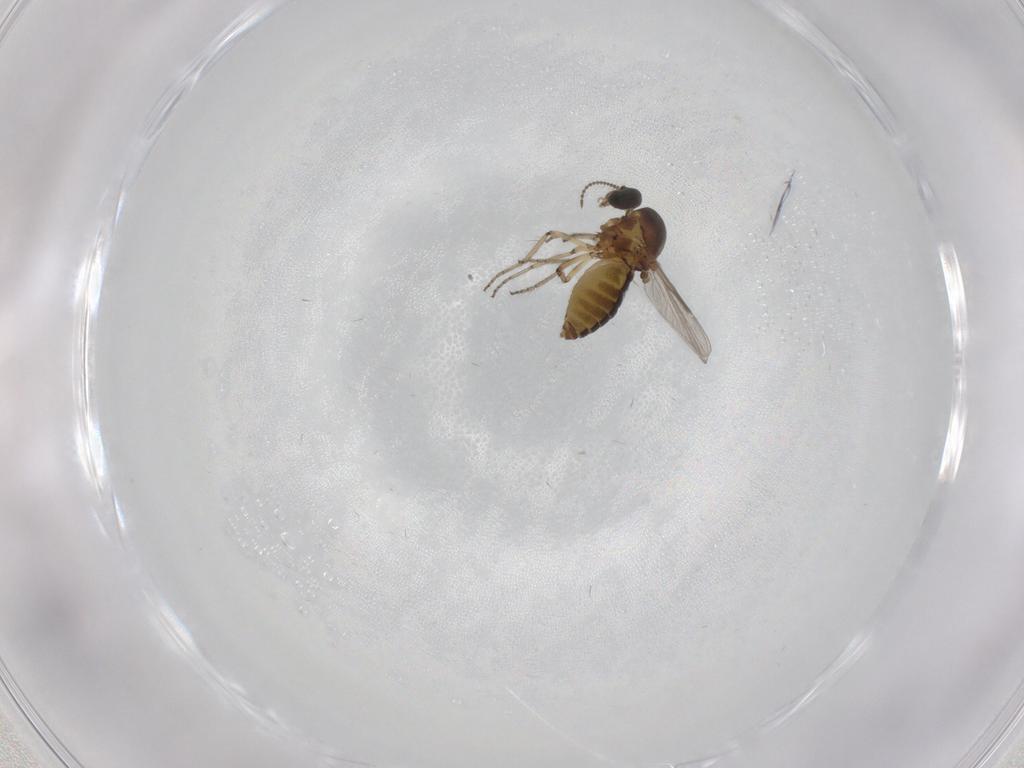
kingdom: Animalia
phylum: Arthropoda
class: Insecta
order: Diptera
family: Ceratopogonidae
